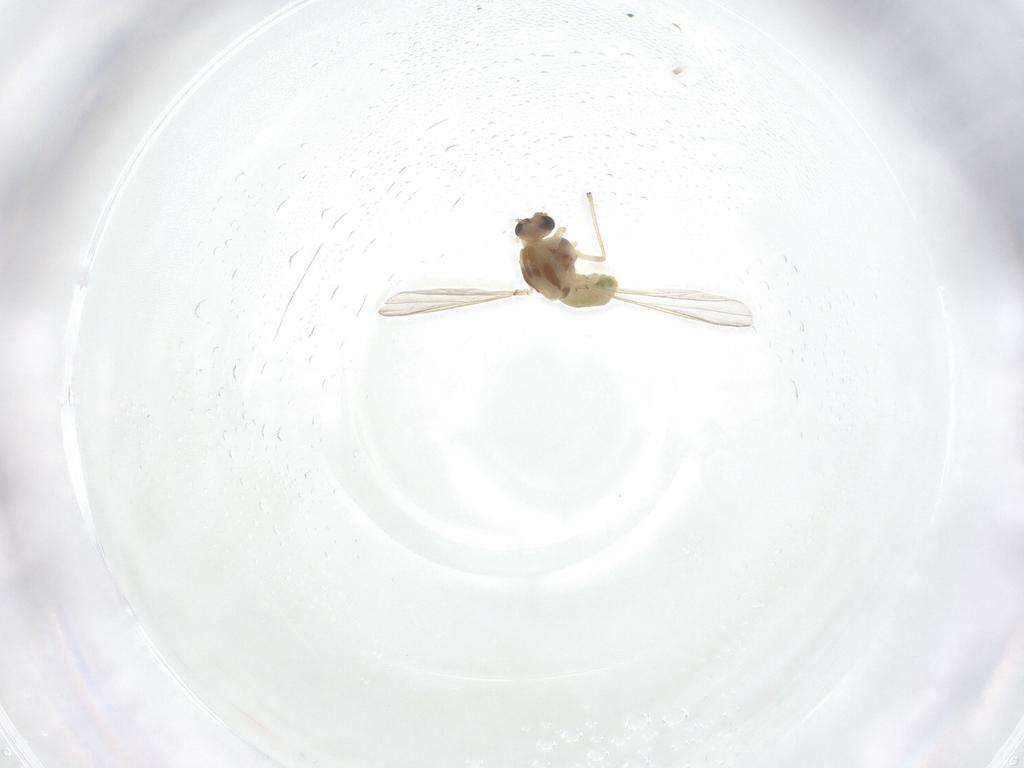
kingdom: Animalia
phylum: Arthropoda
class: Insecta
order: Diptera
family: Chironomidae
